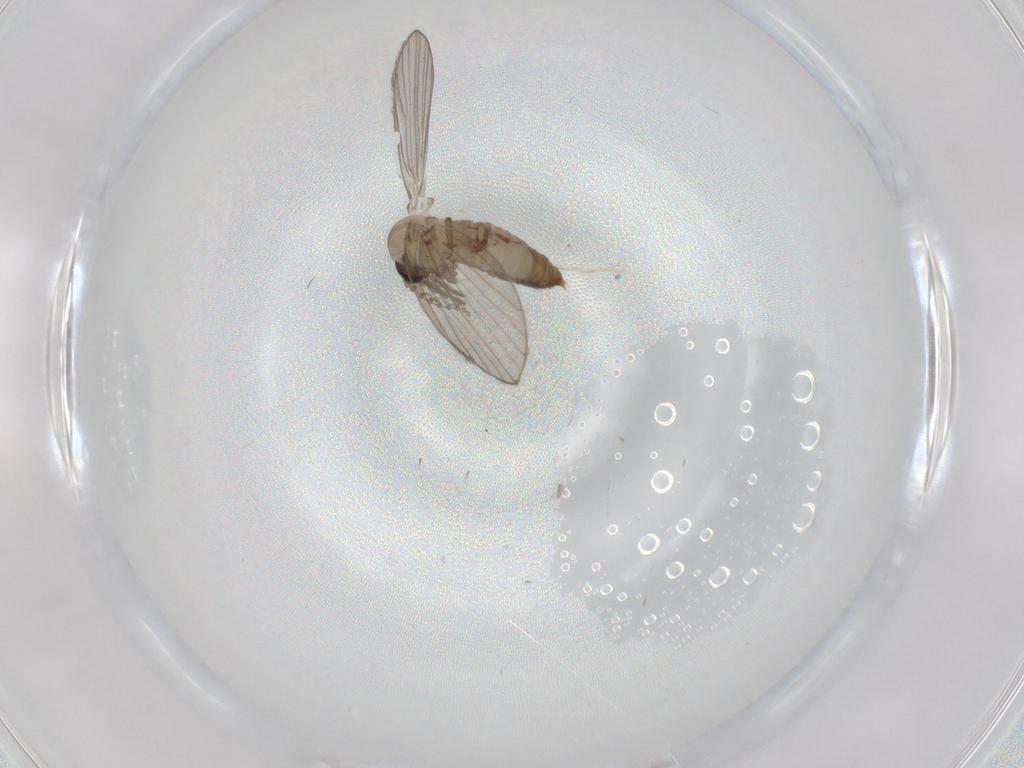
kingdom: Animalia
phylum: Arthropoda
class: Insecta
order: Diptera
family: Psychodidae
